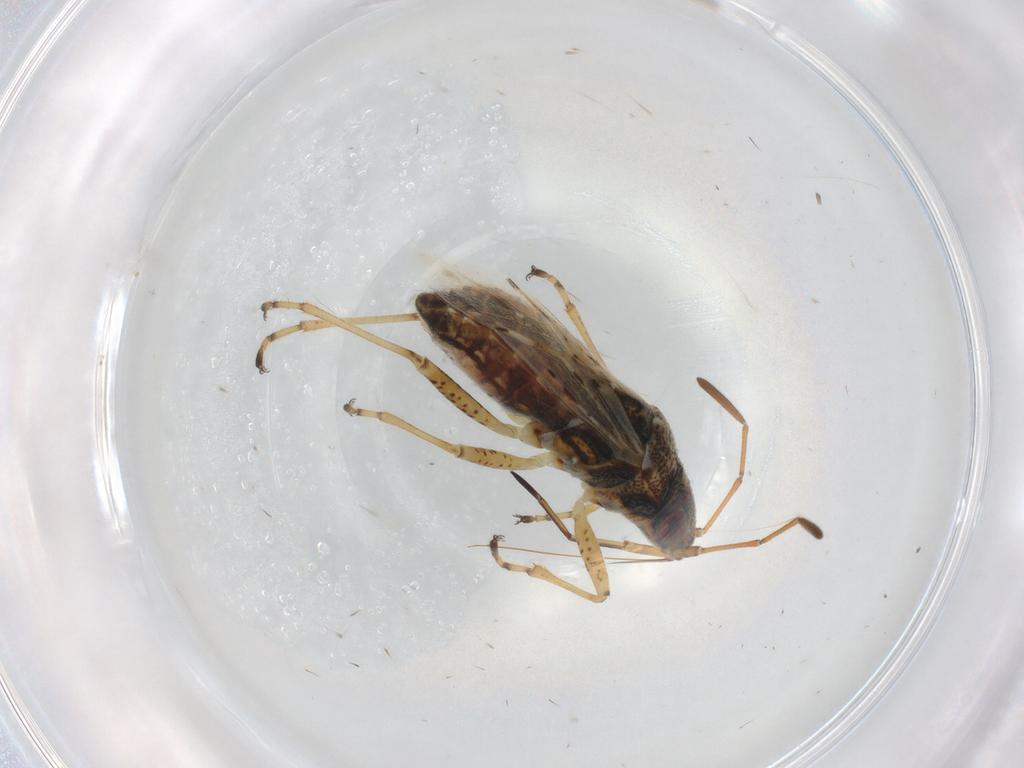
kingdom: Animalia
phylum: Arthropoda
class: Insecta
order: Hemiptera
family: Lygaeidae
